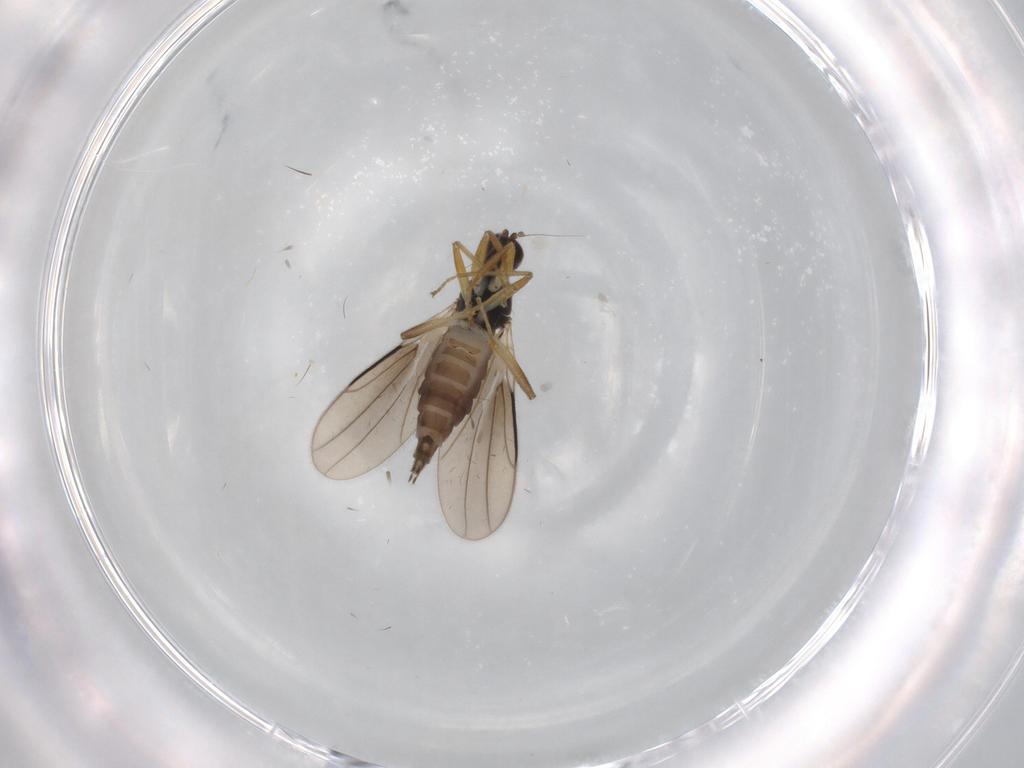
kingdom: Animalia
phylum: Arthropoda
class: Insecta
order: Diptera
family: Hybotidae
